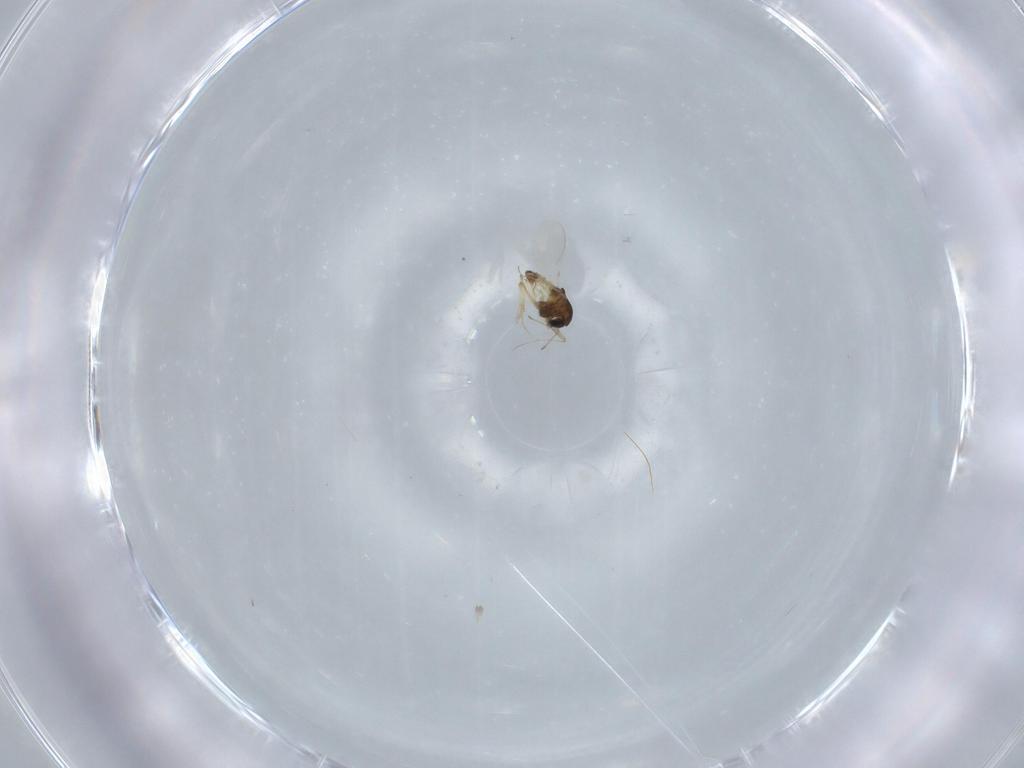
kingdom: Animalia
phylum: Arthropoda
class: Insecta
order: Diptera
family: Chironomidae
